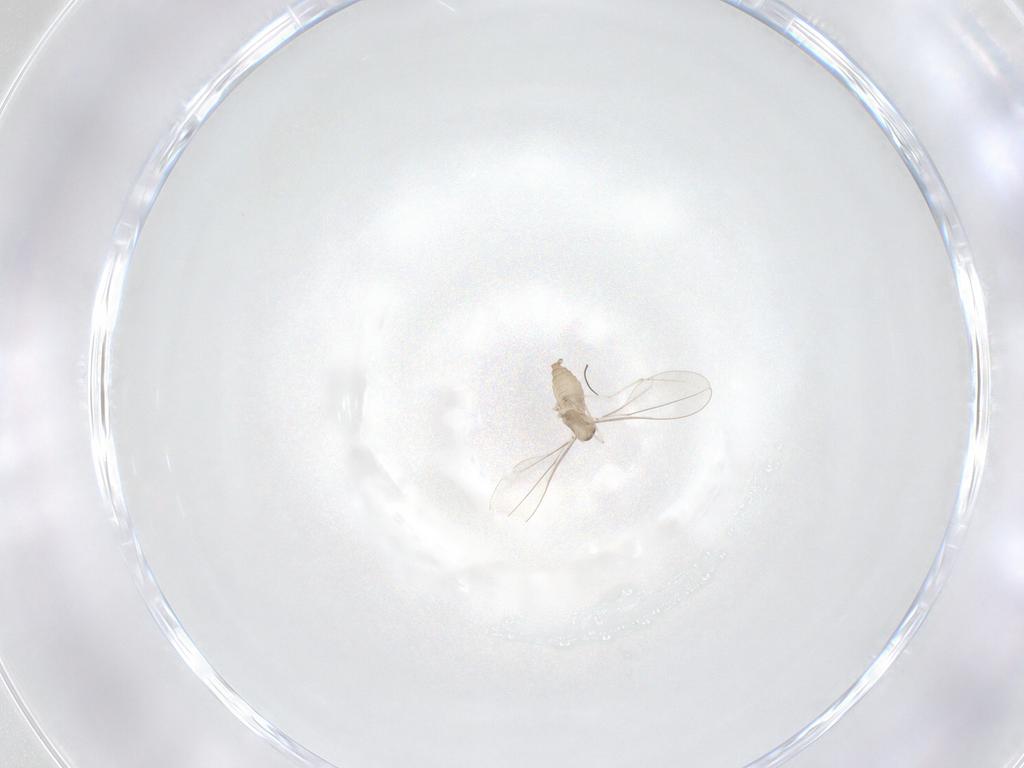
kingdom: Animalia
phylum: Arthropoda
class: Insecta
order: Diptera
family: Cecidomyiidae
